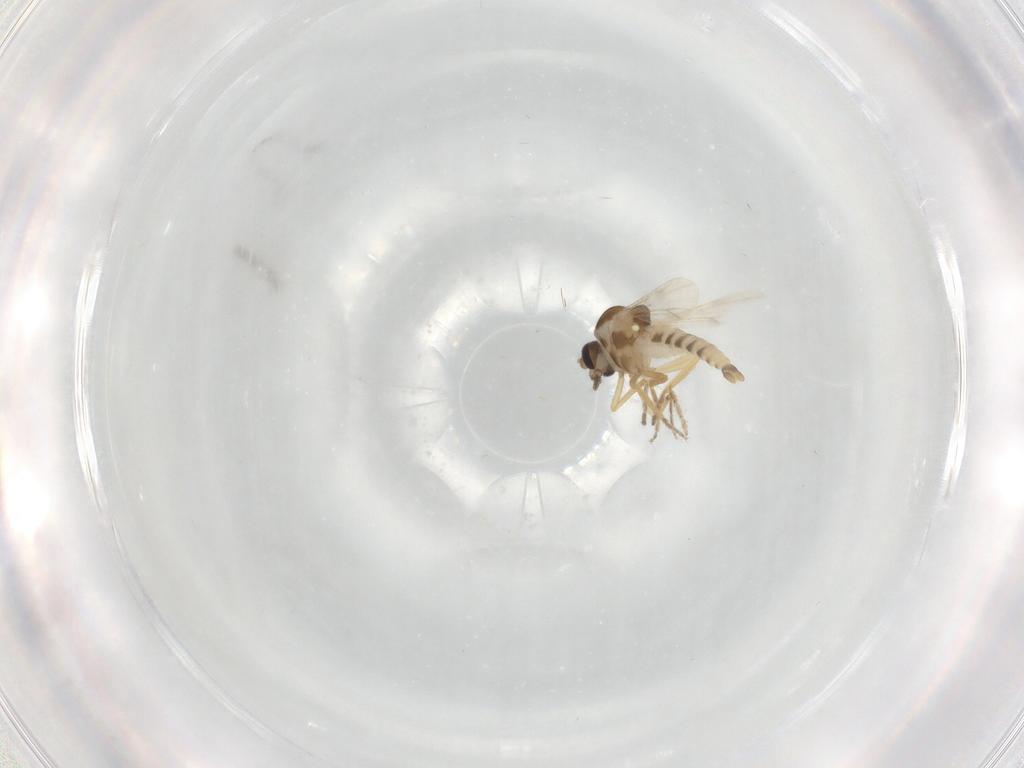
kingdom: Animalia
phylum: Arthropoda
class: Insecta
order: Diptera
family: Ceratopogonidae
